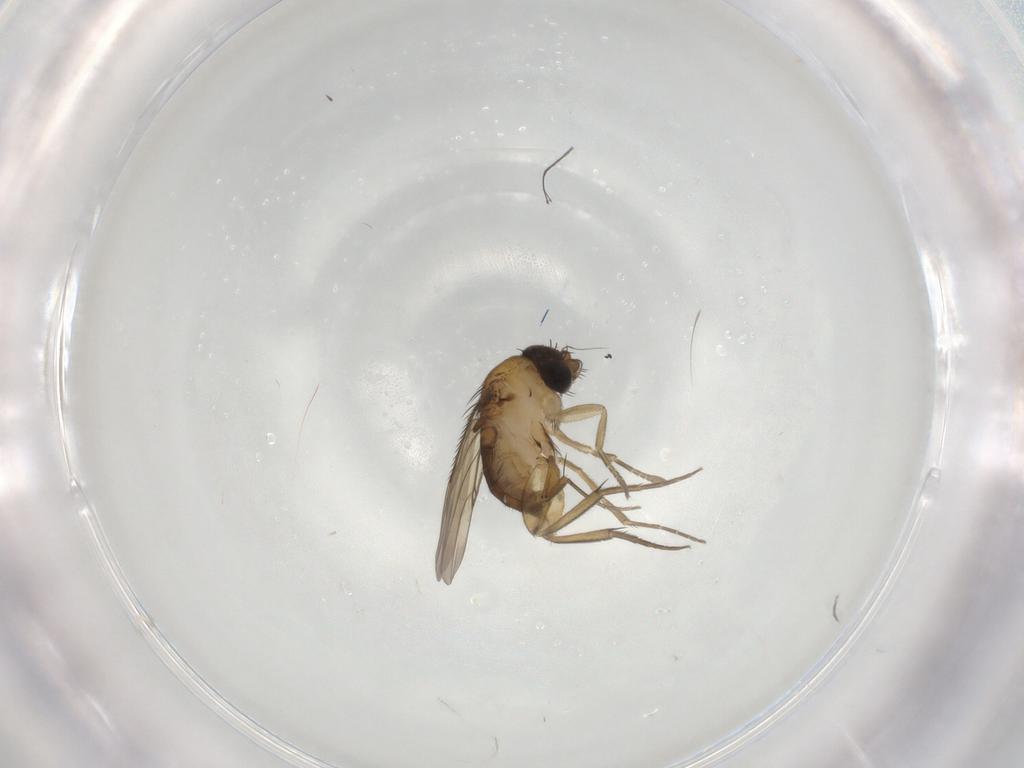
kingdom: Animalia
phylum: Arthropoda
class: Insecta
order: Diptera
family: Phoridae
